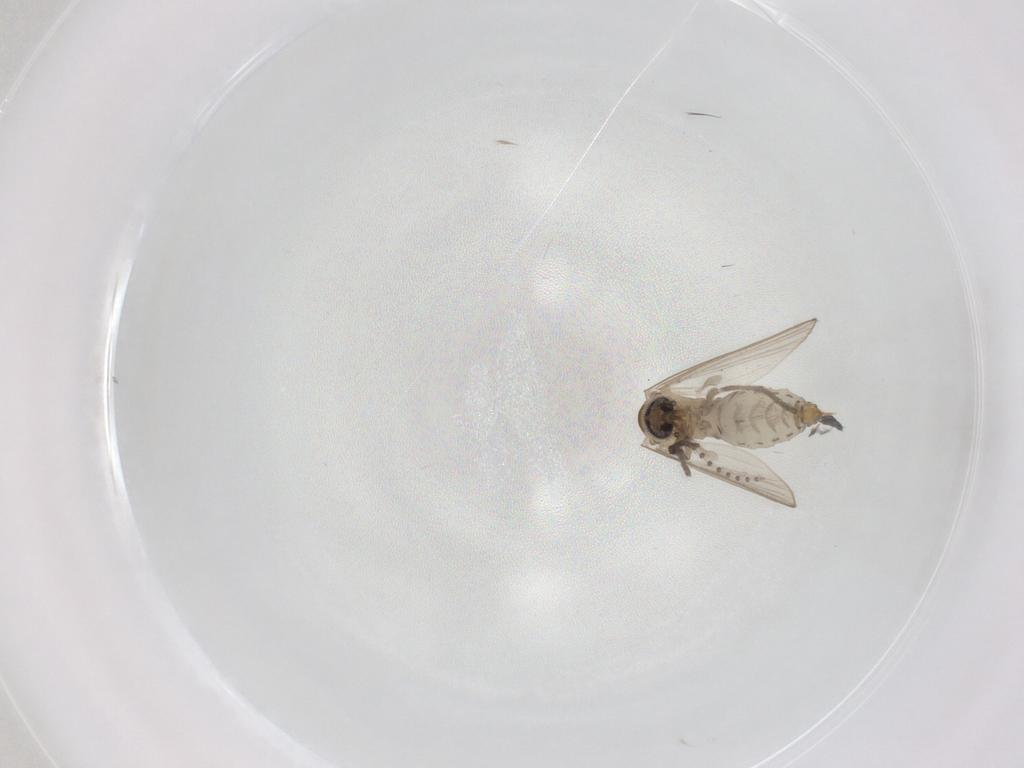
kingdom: Animalia
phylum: Arthropoda
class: Insecta
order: Diptera
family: Psychodidae
